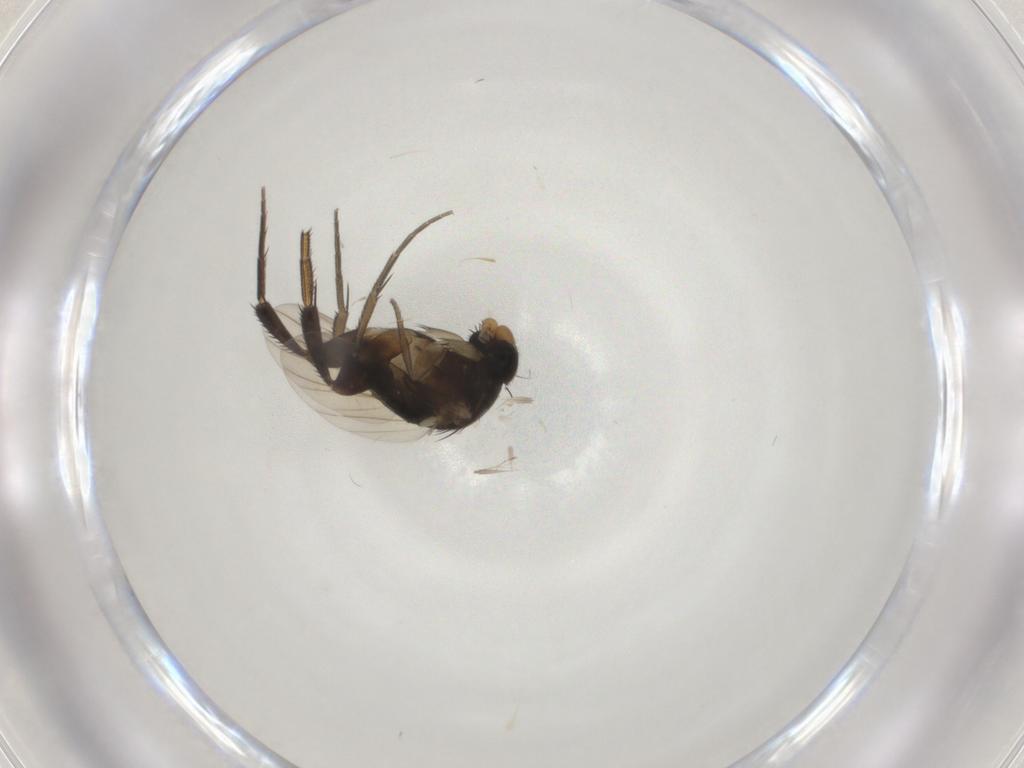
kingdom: Animalia
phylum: Arthropoda
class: Insecta
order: Diptera
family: Phoridae
